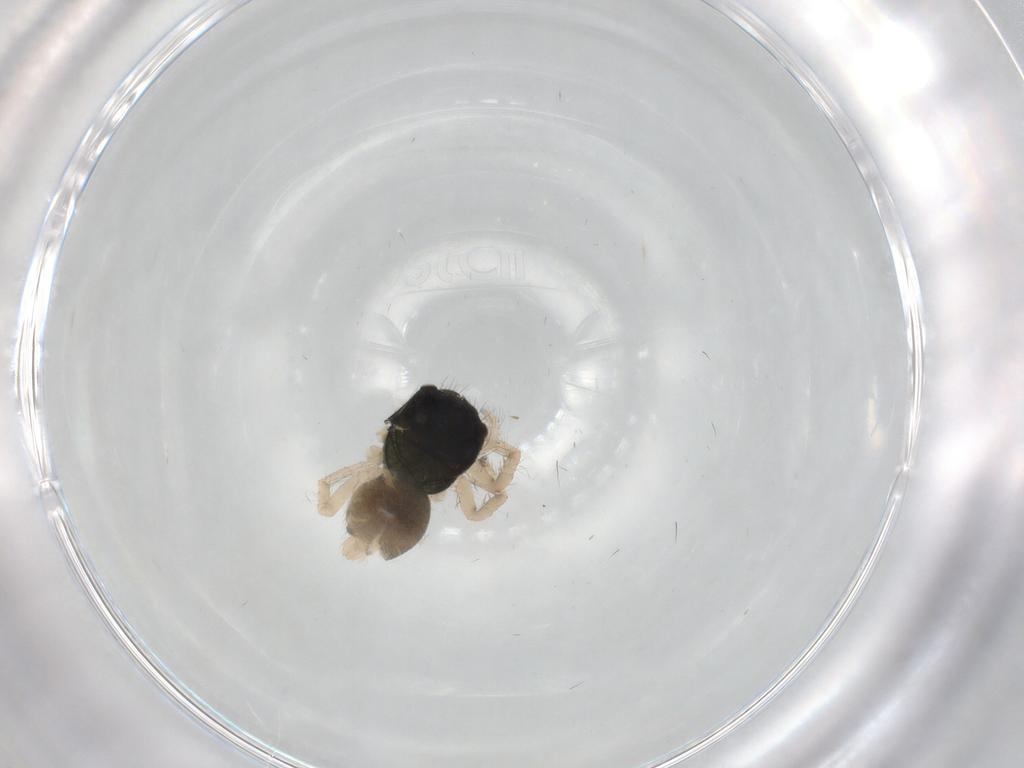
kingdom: Animalia
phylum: Arthropoda
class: Arachnida
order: Araneae
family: Salticidae
